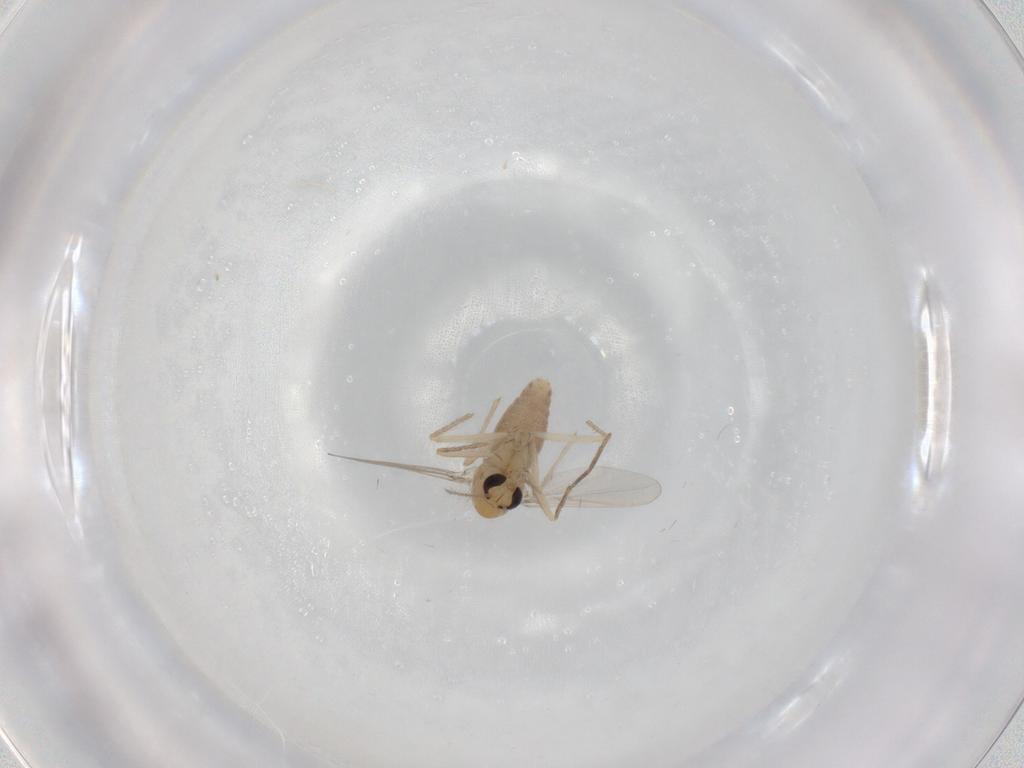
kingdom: Animalia
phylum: Arthropoda
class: Insecta
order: Diptera
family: Chironomidae
